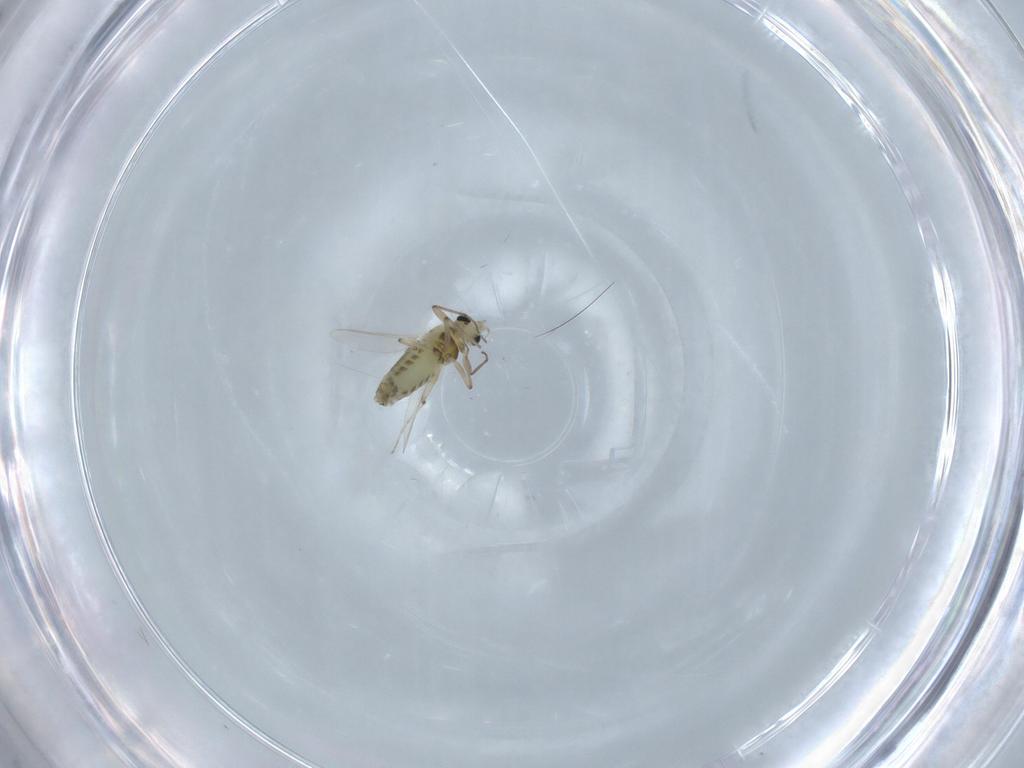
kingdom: Animalia
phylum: Arthropoda
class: Insecta
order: Diptera
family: Chironomidae
